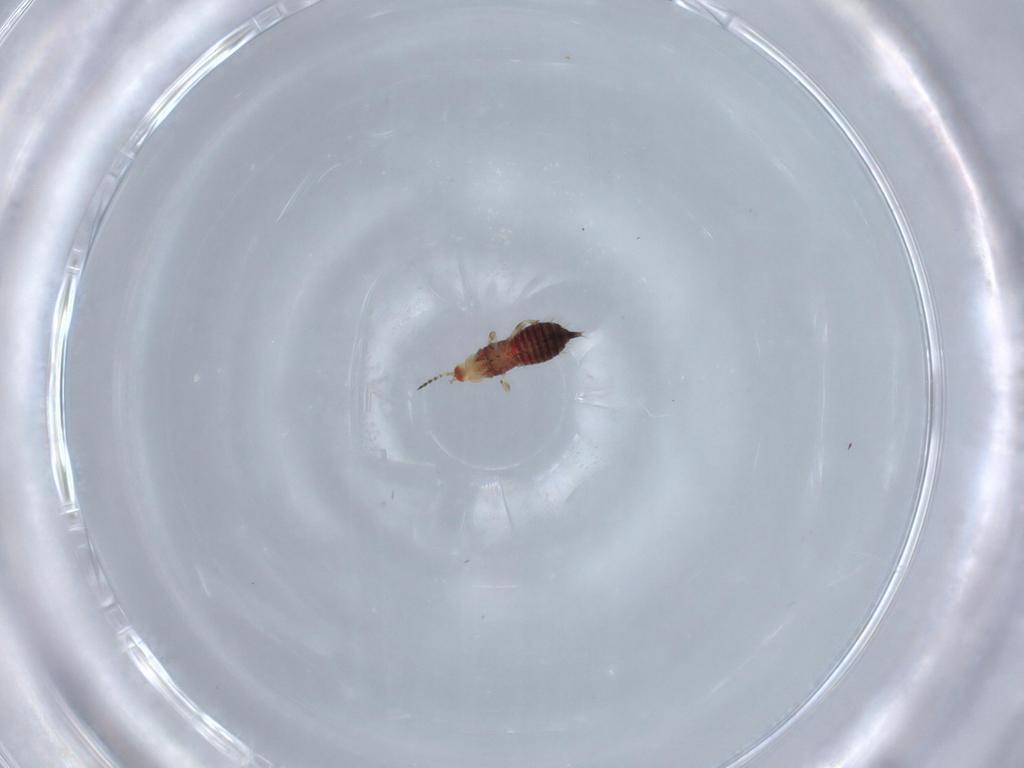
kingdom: Animalia
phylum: Arthropoda
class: Insecta
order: Thysanoptera
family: Phlaeothripidae
